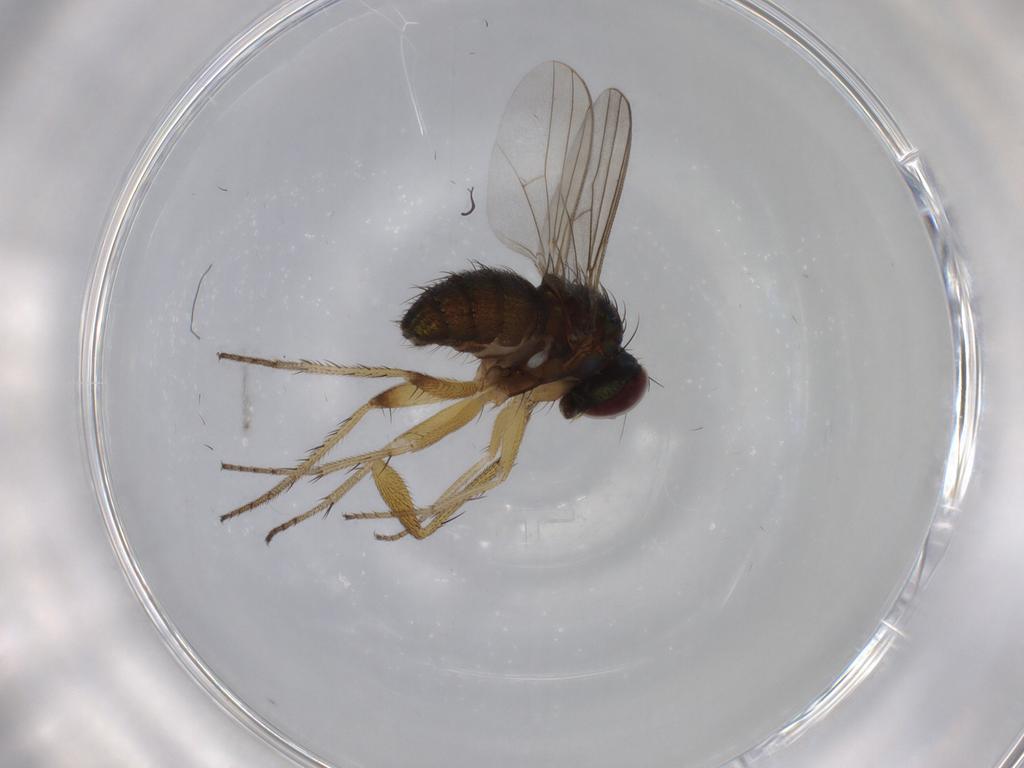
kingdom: Animalia
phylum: Arthropoda
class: Insecta
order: Diptera
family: Dolichopodidae
